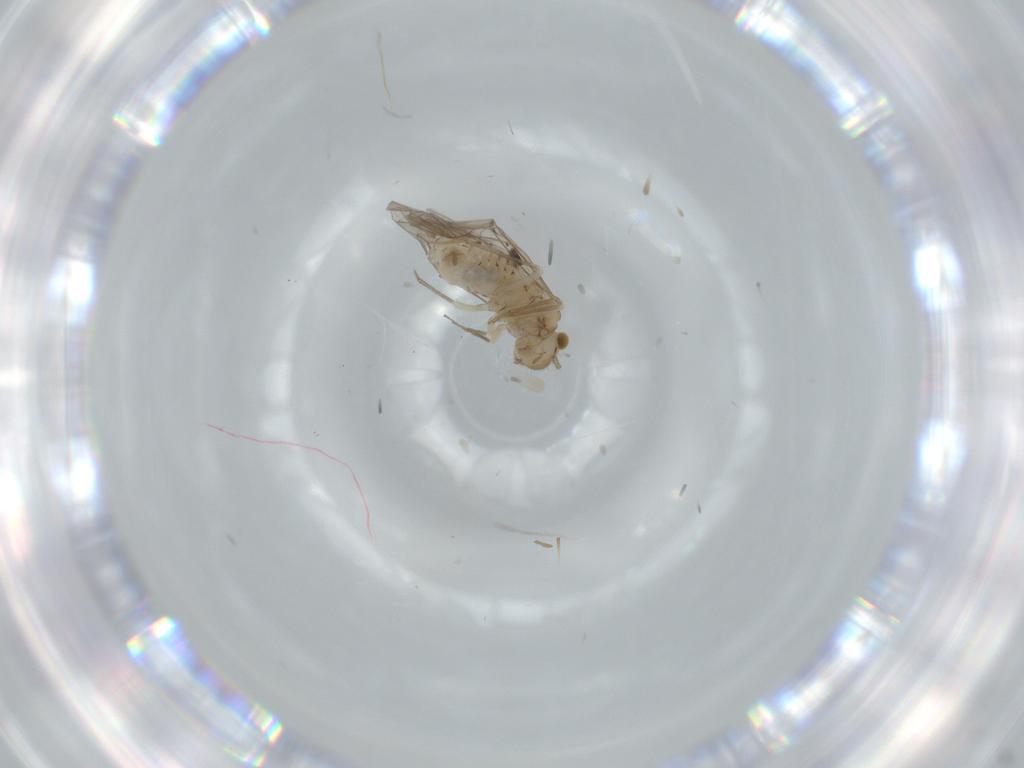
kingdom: Animalia
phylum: Arthropoda
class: Insecta
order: Psocodea
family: Lachesillidae
